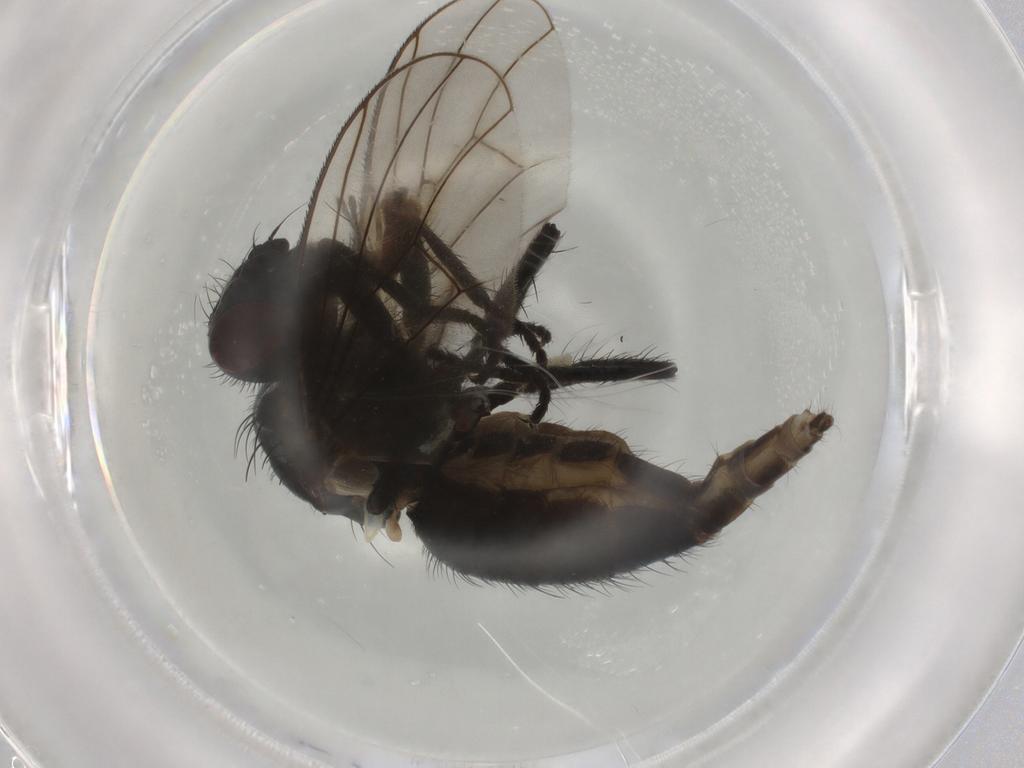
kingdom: Animalia
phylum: Arthropoda
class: Insecta
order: Diptera
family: Muscidae
